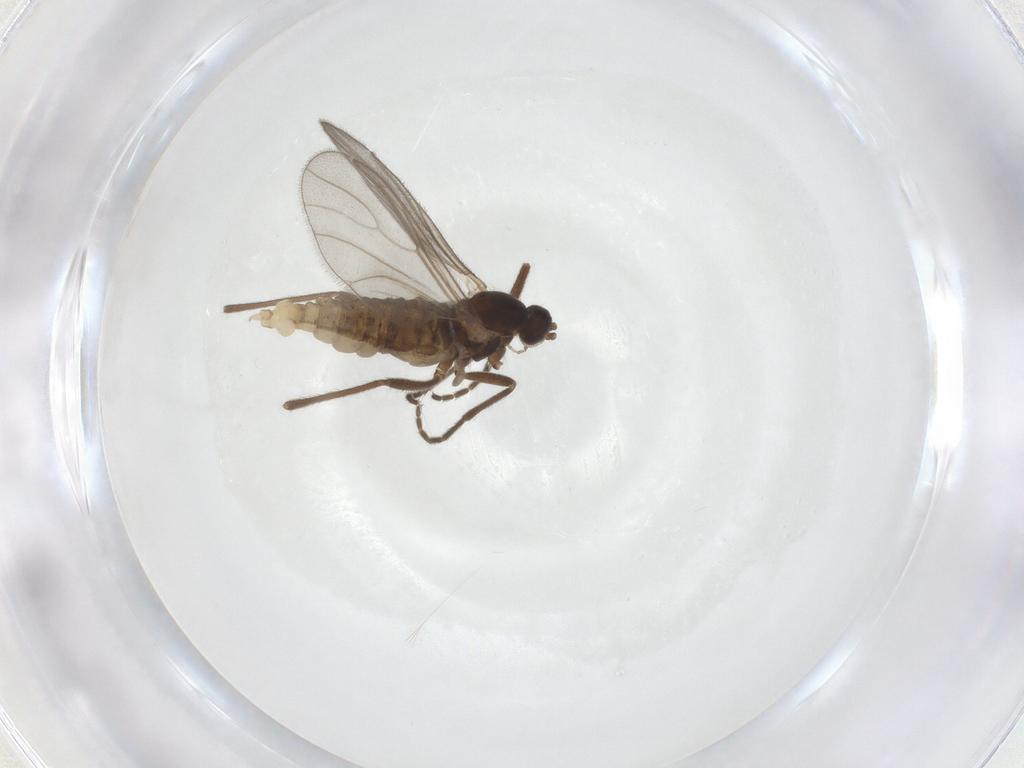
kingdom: Animalia
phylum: Arthropoda
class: Insecta
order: Diptera
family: Cecidomyiidae
